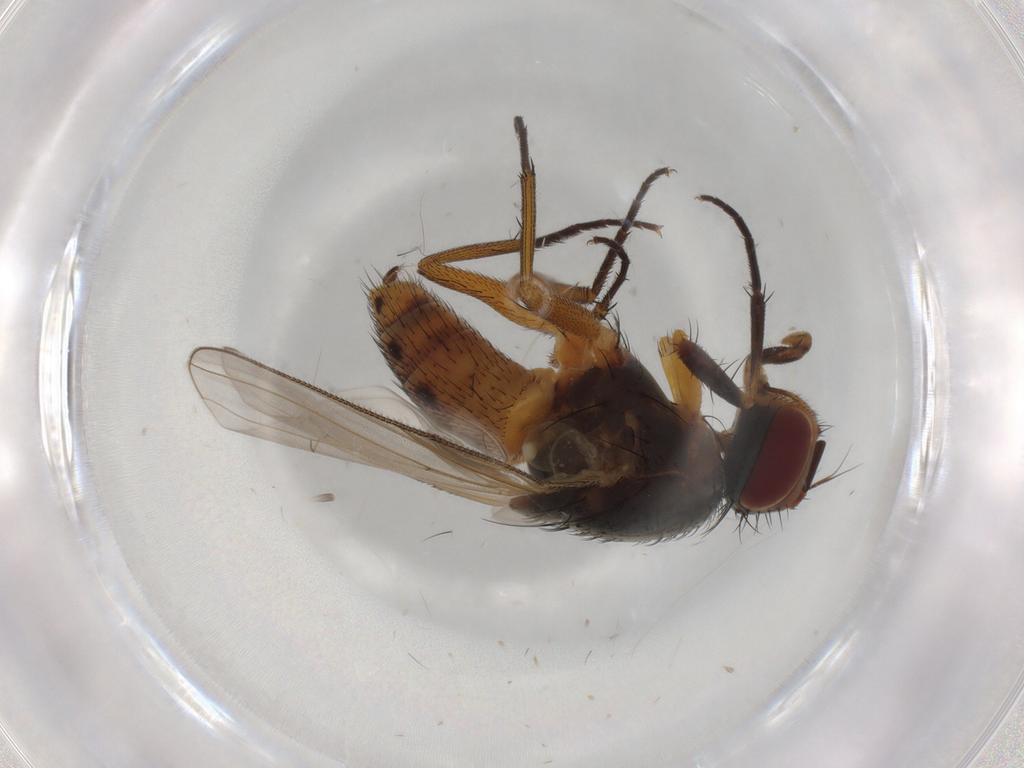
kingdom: Animalia
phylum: Arthropoda
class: Insecta
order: Diptera
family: Muscidae
